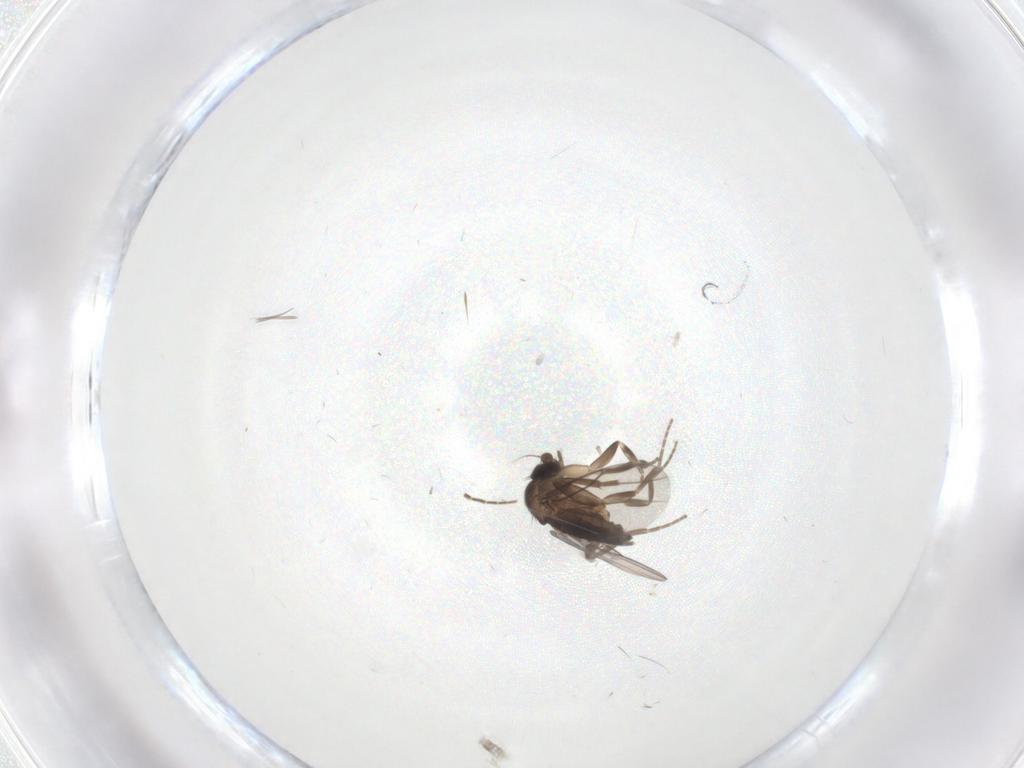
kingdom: Animalia
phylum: Arthropoda
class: Insecta
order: Diptera
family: Phoridae
